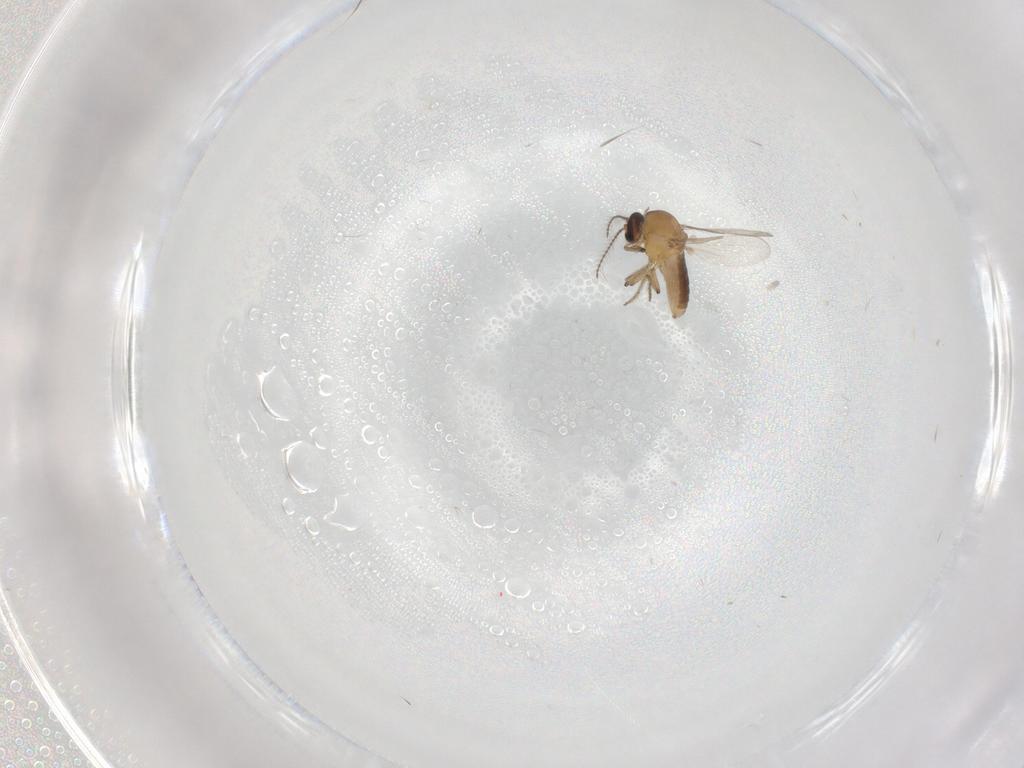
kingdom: Animalia
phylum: Arthropoda
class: Insecta
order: Diptera
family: Ceratopogonidae
